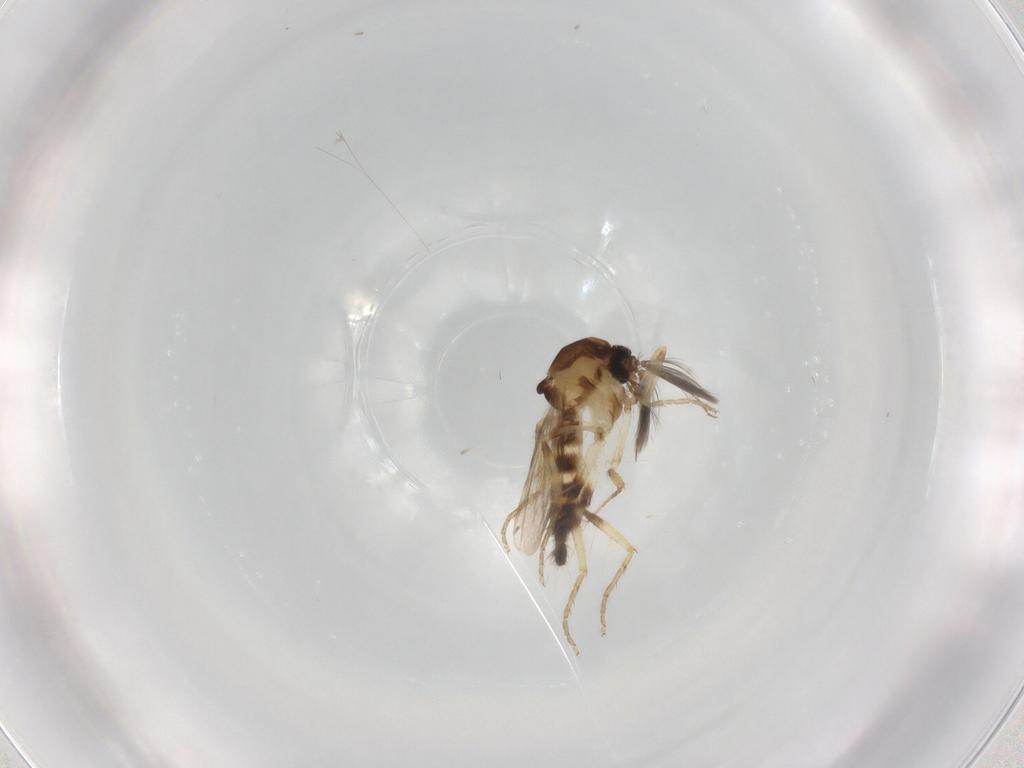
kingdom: Animalia
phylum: Arthropoda
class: Insecta
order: Diptera
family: Ceratopogonidae
